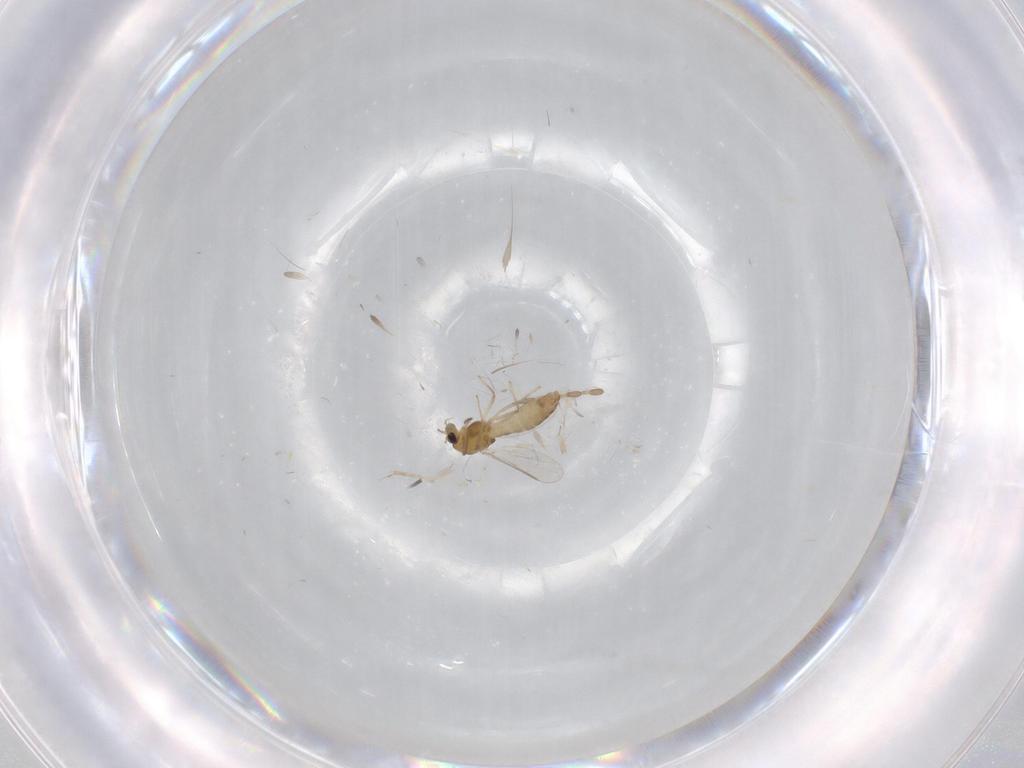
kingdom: Animalia
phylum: Arthropoda
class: Insecta
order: Diptera
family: Chironomidae
